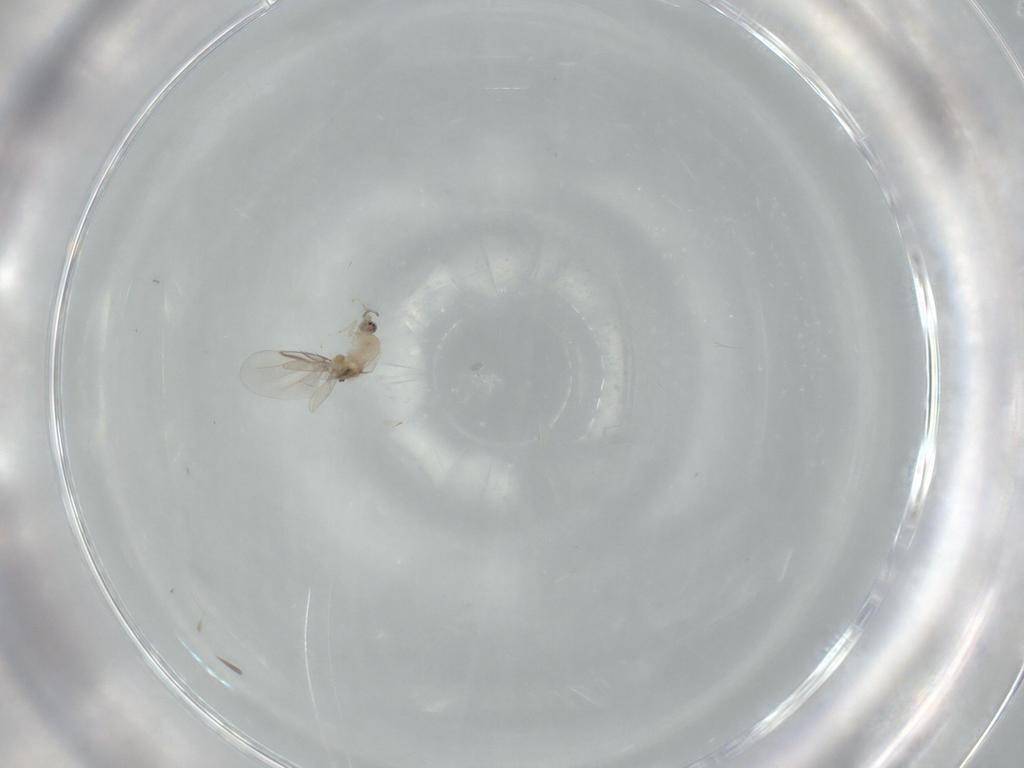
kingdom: Animalia
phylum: Arthropoda
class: Insecta
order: Diptera
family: Cecidomyiidae
